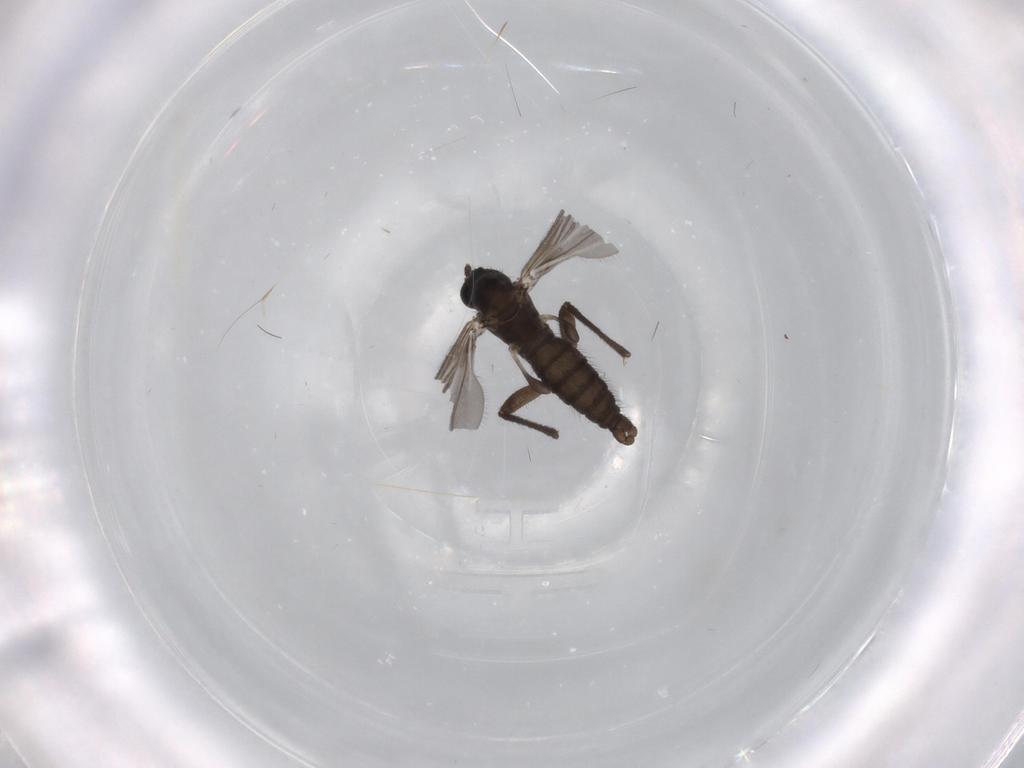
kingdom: Animalia
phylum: Arthropoda
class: Insecta
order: Diptera
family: Sciaridae
